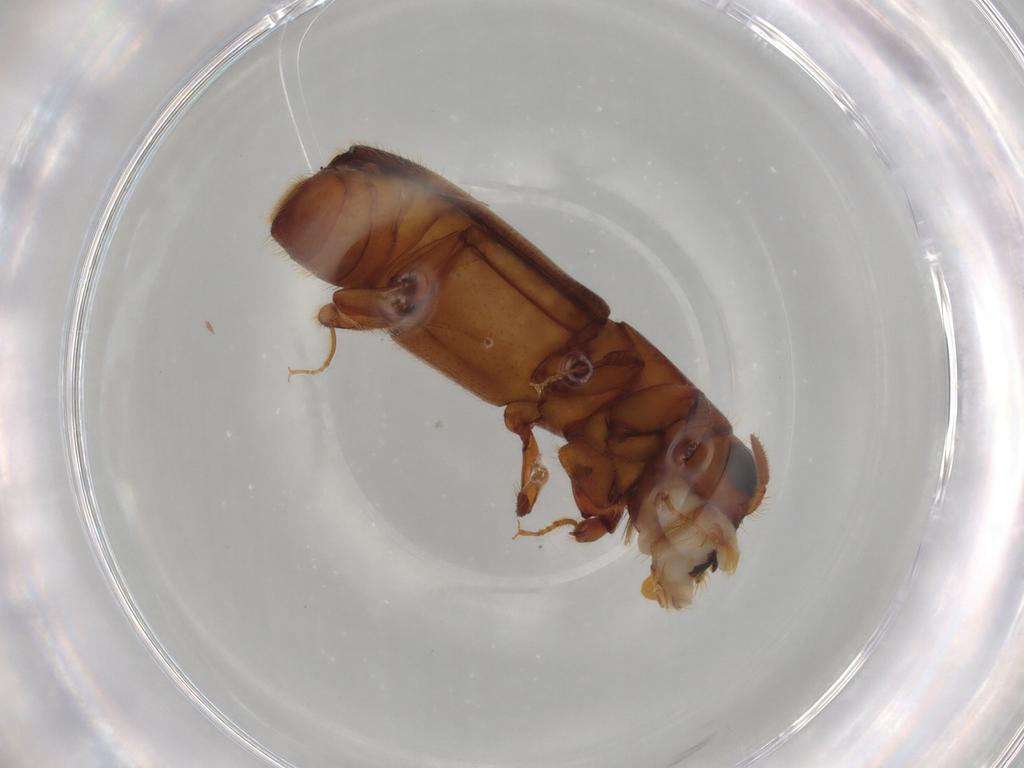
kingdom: Animalia
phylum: Arthropoda
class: Insecta
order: Coleoptera
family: Curculionidae
